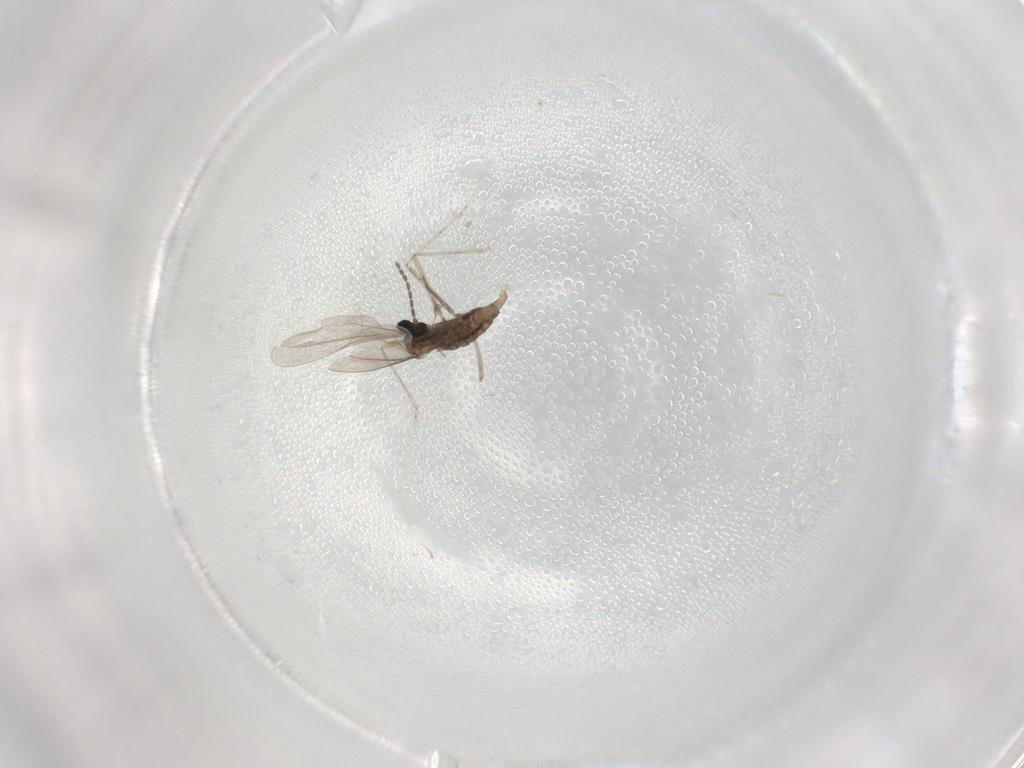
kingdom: Animalia
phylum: Arthropoda
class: Insecta
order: Diptera
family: Cecidomyiidae
